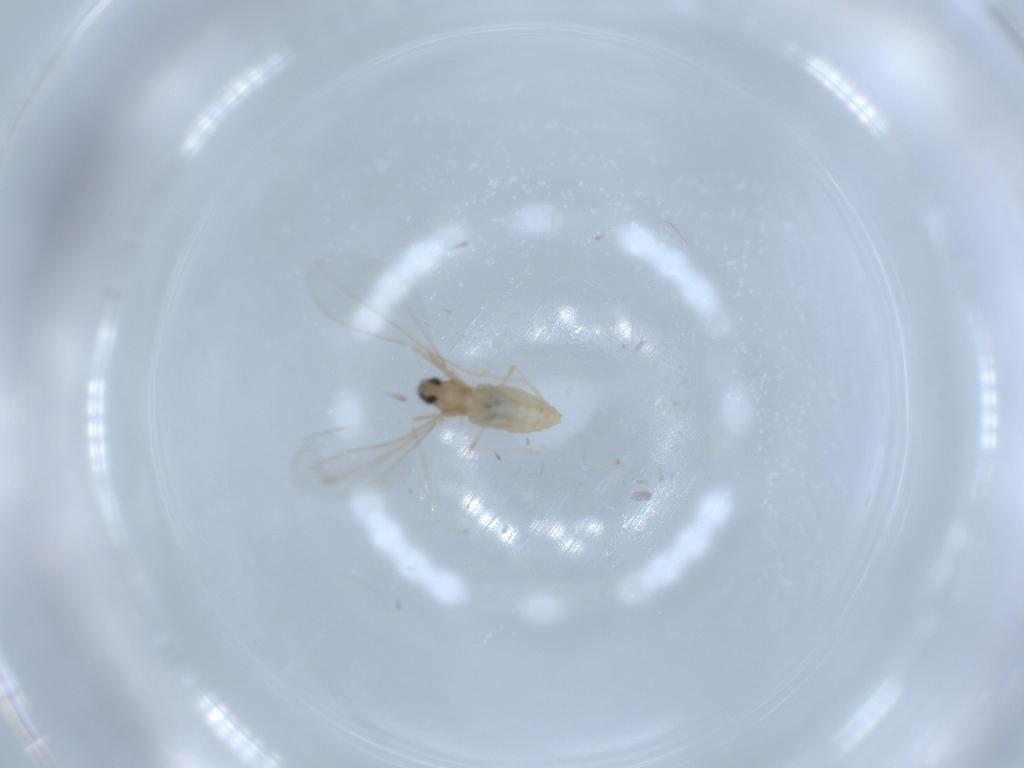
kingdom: Animalia
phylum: Arthropoda
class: Insecta
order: Diptera
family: Cecidomyiidae
